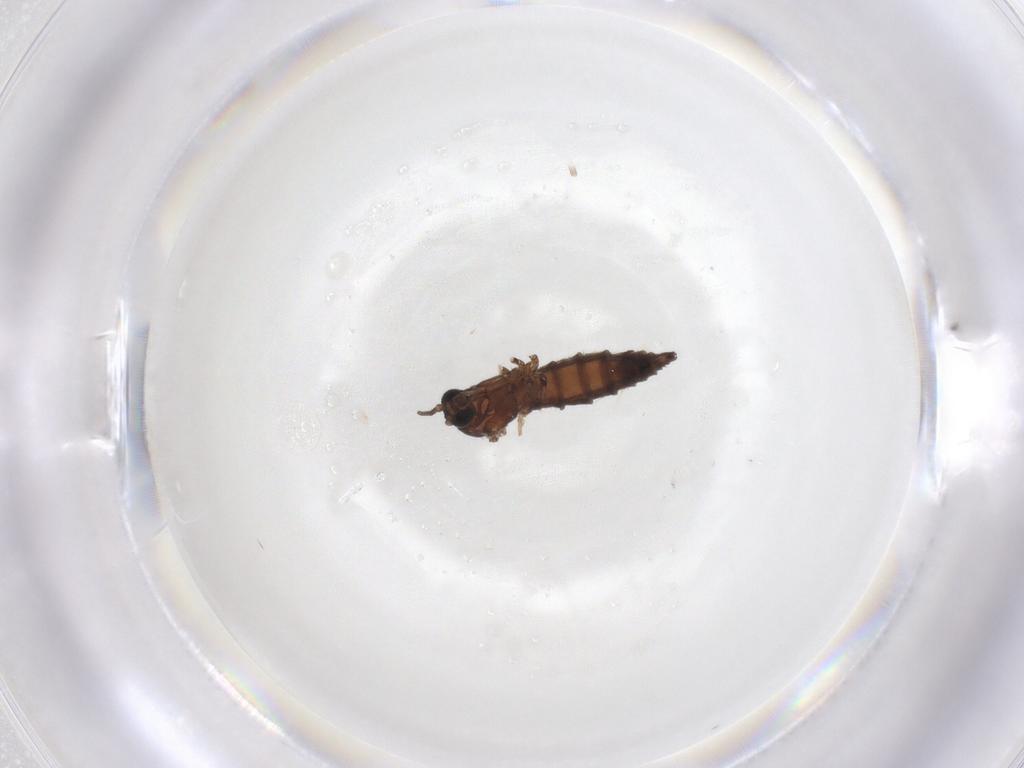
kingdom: Animalia
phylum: Arthropoda
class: Insecta
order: Diptera
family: Sciaridae
